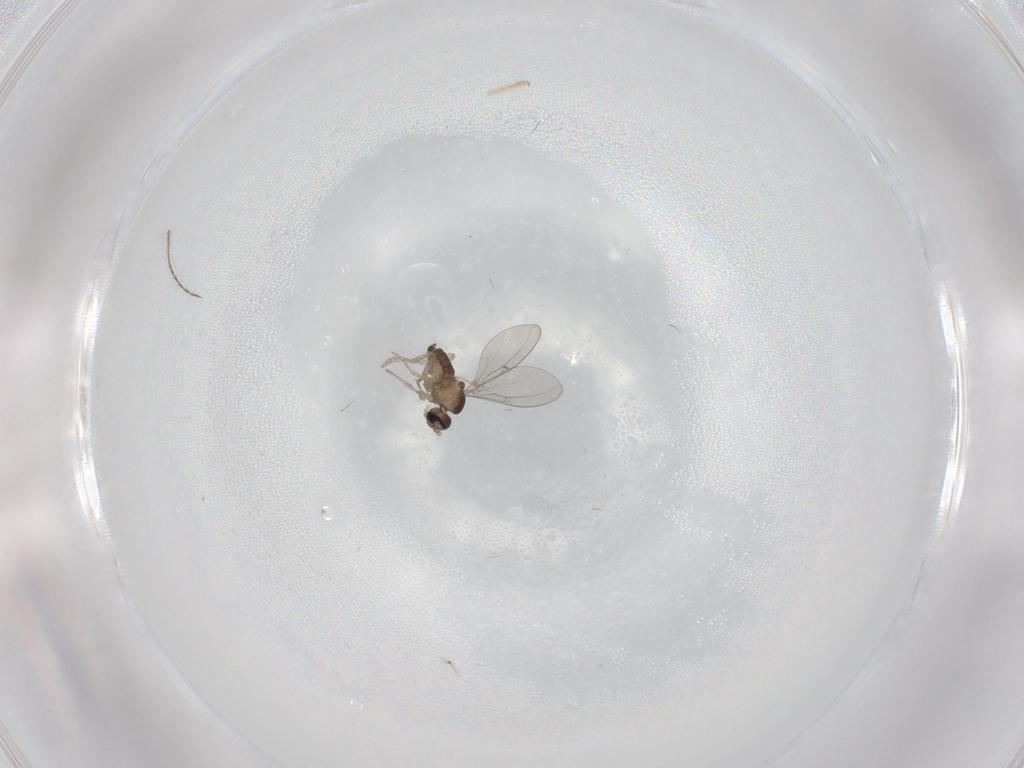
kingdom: Animalia
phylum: Arthropoda
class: Insecta
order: Diptera
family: Cecidomyiidae
